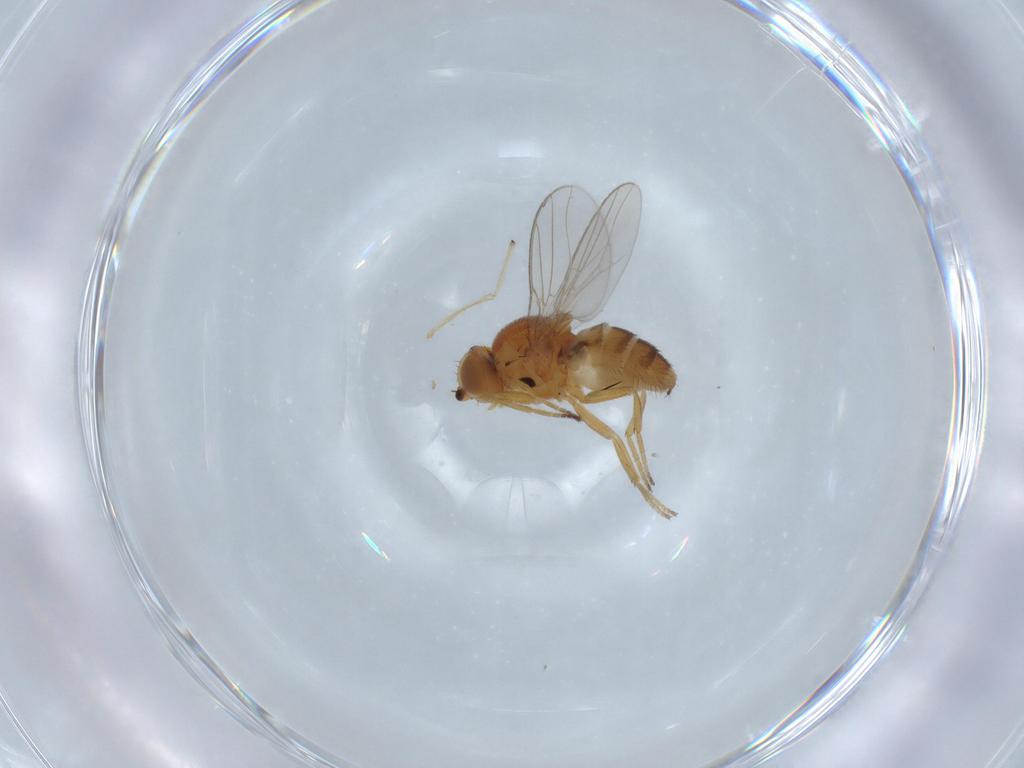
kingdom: Animalia
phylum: Arthropoda
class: Insecta
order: Diptera
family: Chloropidae
